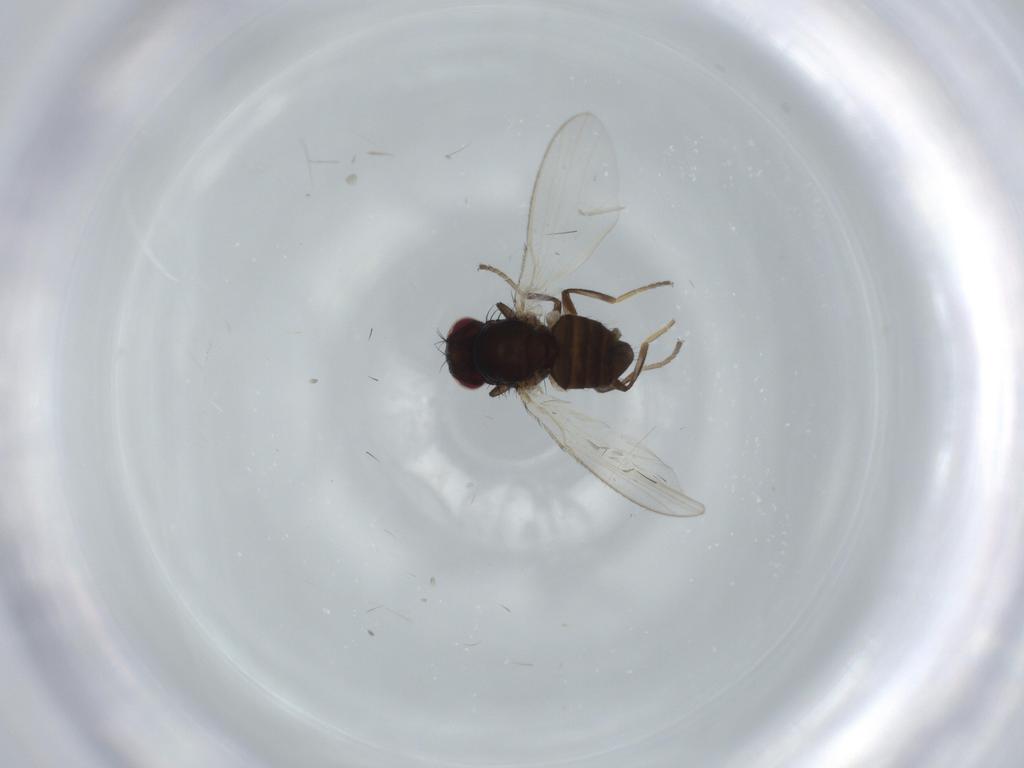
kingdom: Animalia
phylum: Arthropoda
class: Insecta
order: Diptera
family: Carnidae
